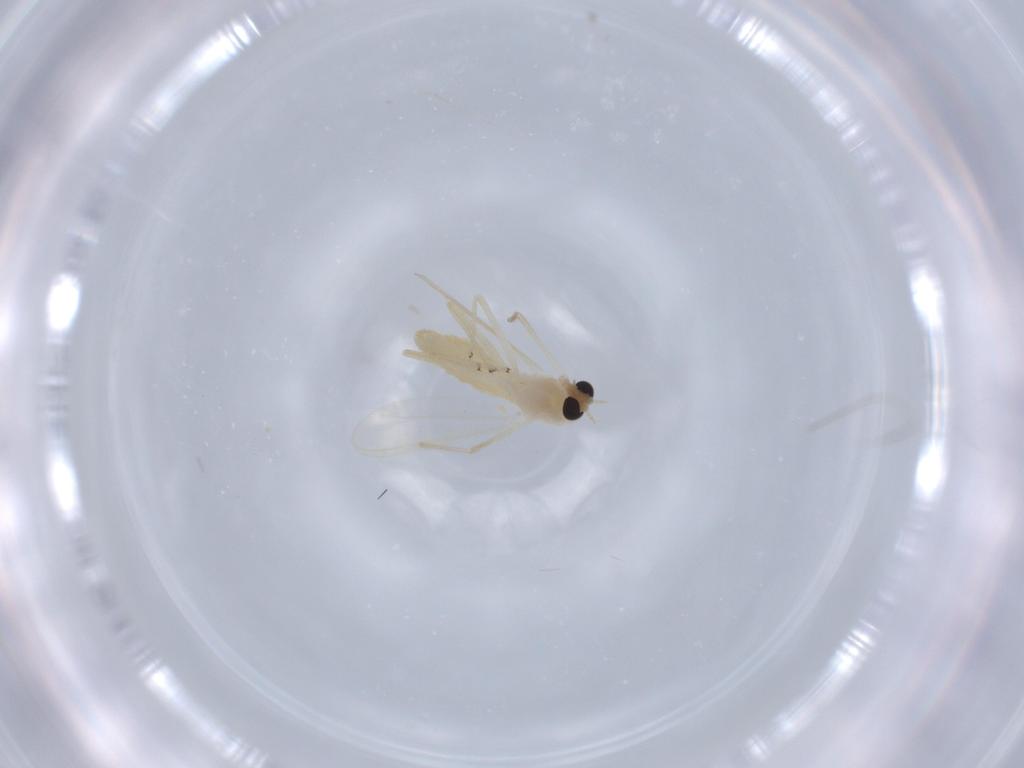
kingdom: Animalia
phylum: Arthropoda
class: Insecta
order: Diptera
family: Chironomidae
